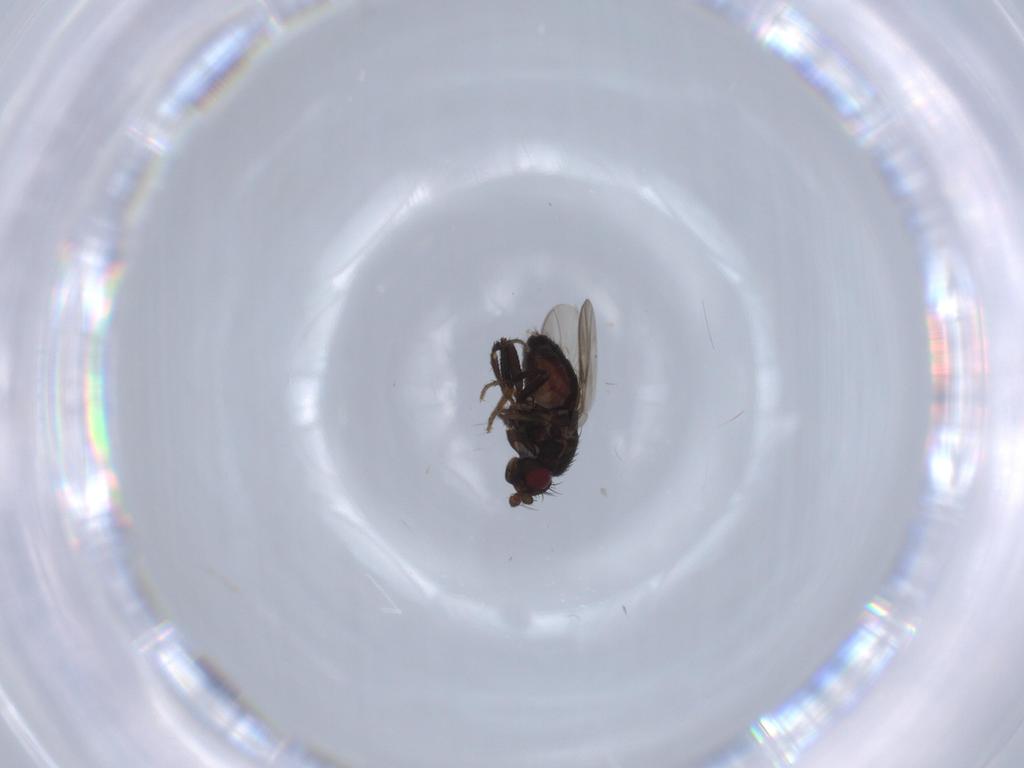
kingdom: Animalia
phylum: Arthropoda
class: Insecta
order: Diptera
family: Sphaeroceridae
